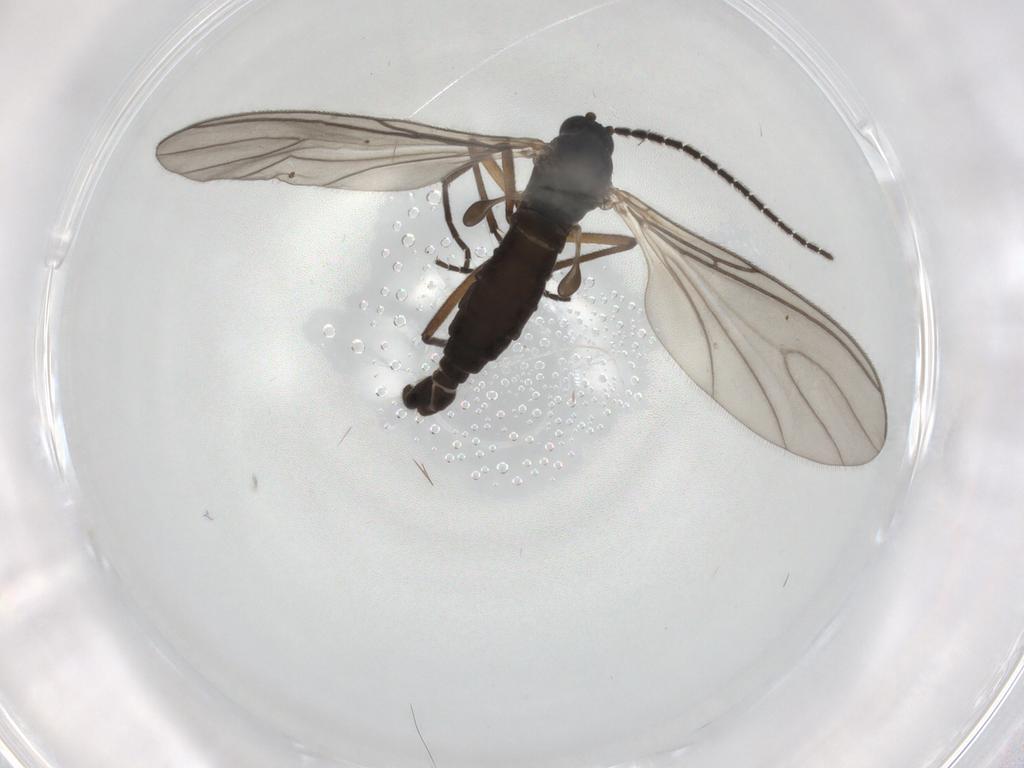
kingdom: Animalia
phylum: Arthropoda
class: Insecta
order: Diptera
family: Sciaridae
